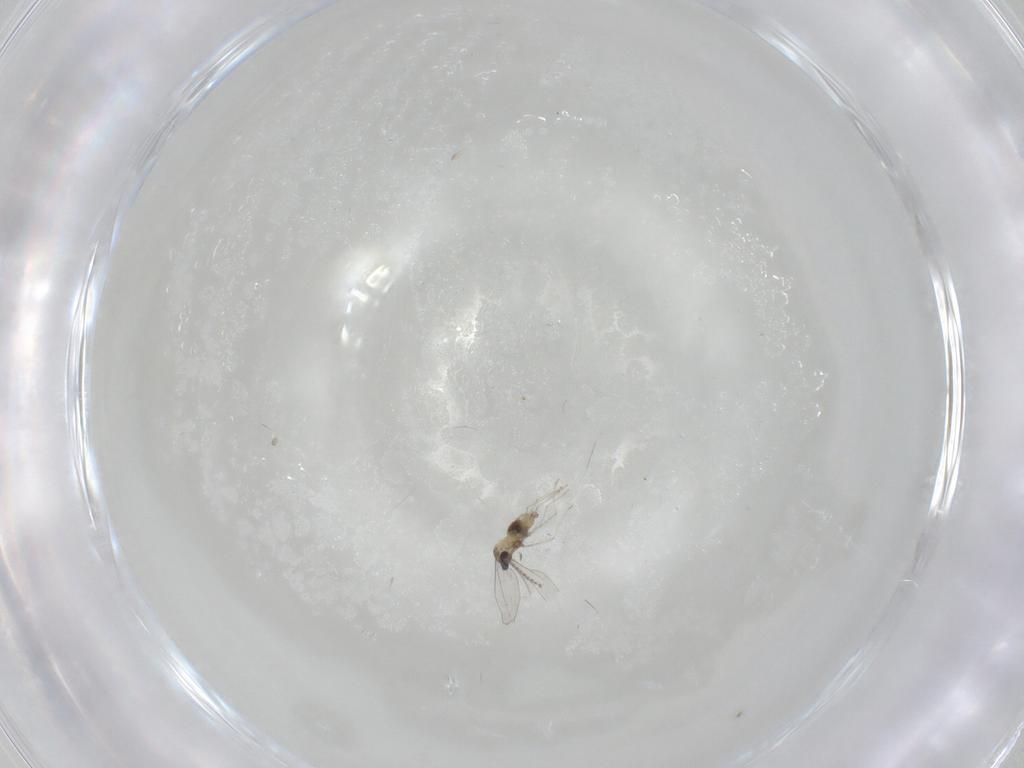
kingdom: Animalia
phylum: Arthropoda
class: Insecta
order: Diptera
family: Cecidomyiidae
